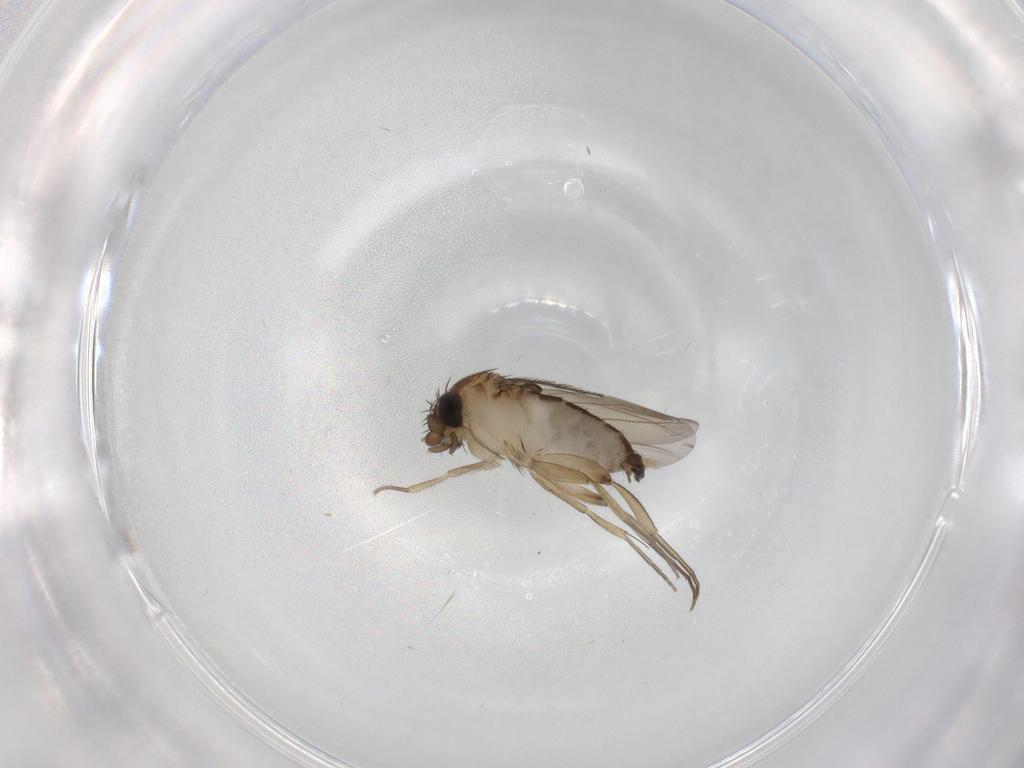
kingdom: Animalia
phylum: Arthropoda
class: Insecta
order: Diptera
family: Phoridae
